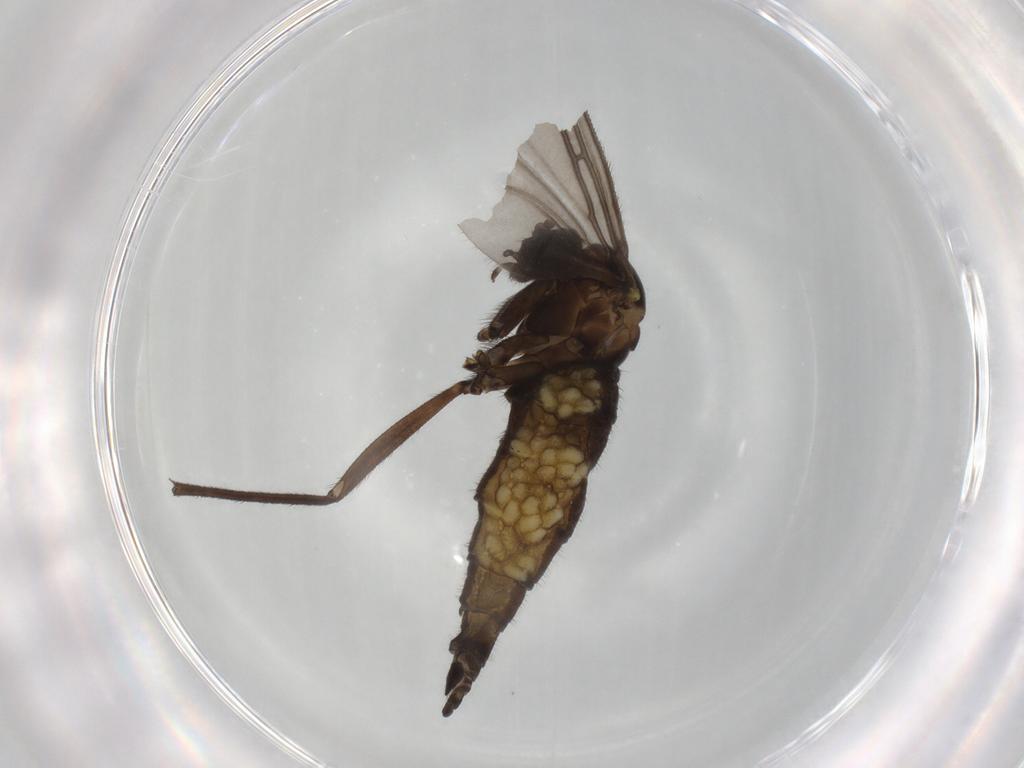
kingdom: Animalia
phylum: Arthropoda
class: Insecta
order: Diptera
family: Sciaridae
